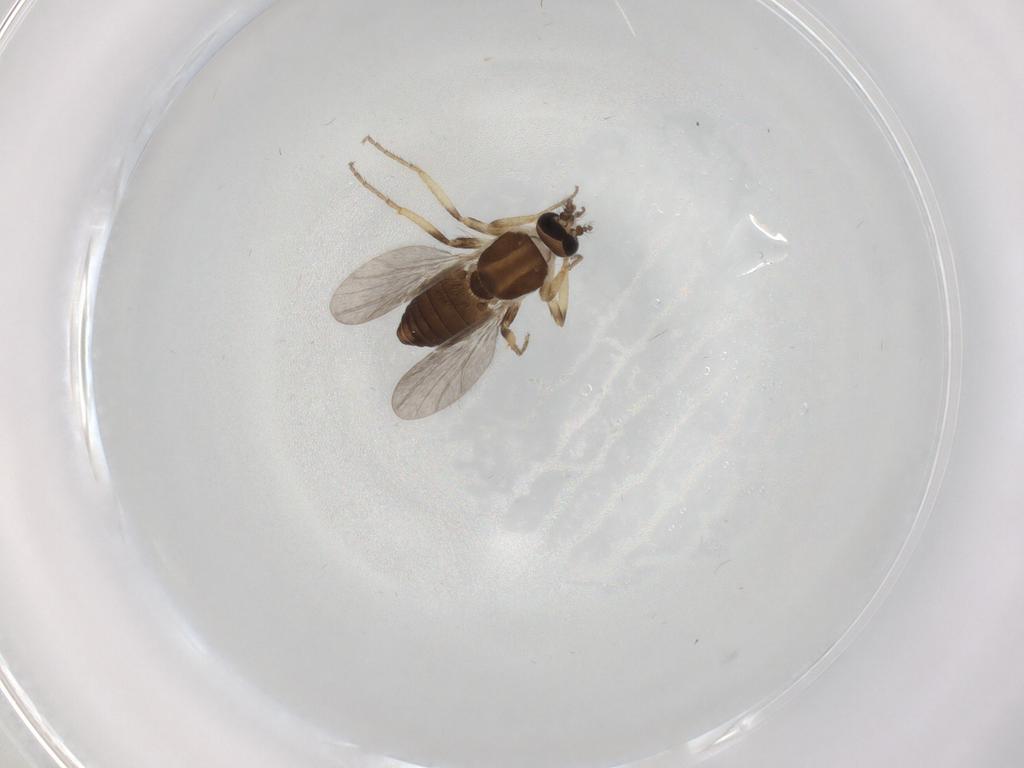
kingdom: Animalia
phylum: Arthropoda
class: Insecta
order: Diptera
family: Ceratopogonidae
